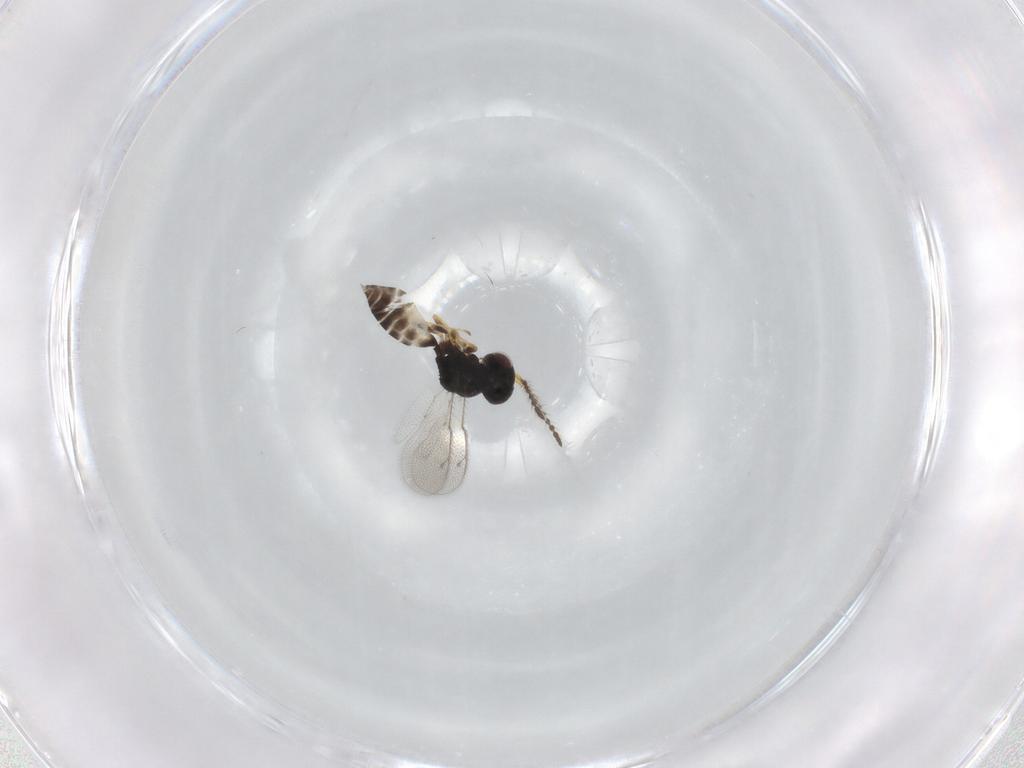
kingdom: Animalia
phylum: Arthropoda
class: Insecta
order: Hymenoptera
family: Pteromalidae
